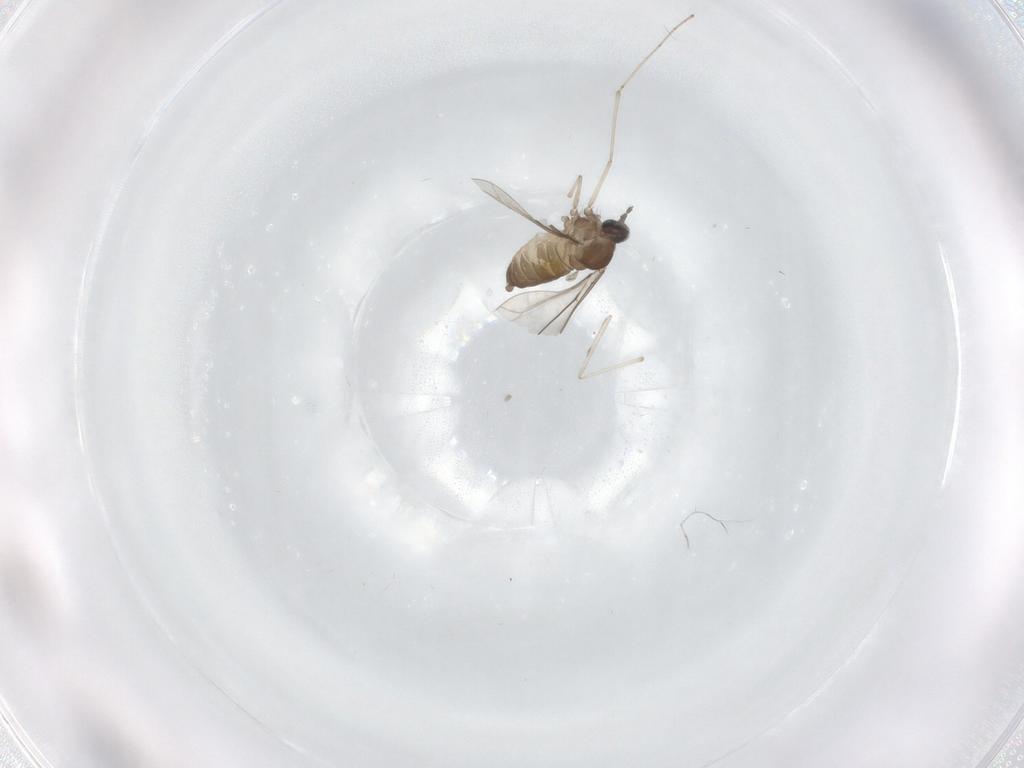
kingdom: Animalia
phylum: Arthropoda
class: Insecta
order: Diptera
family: Cecidomyiidae
